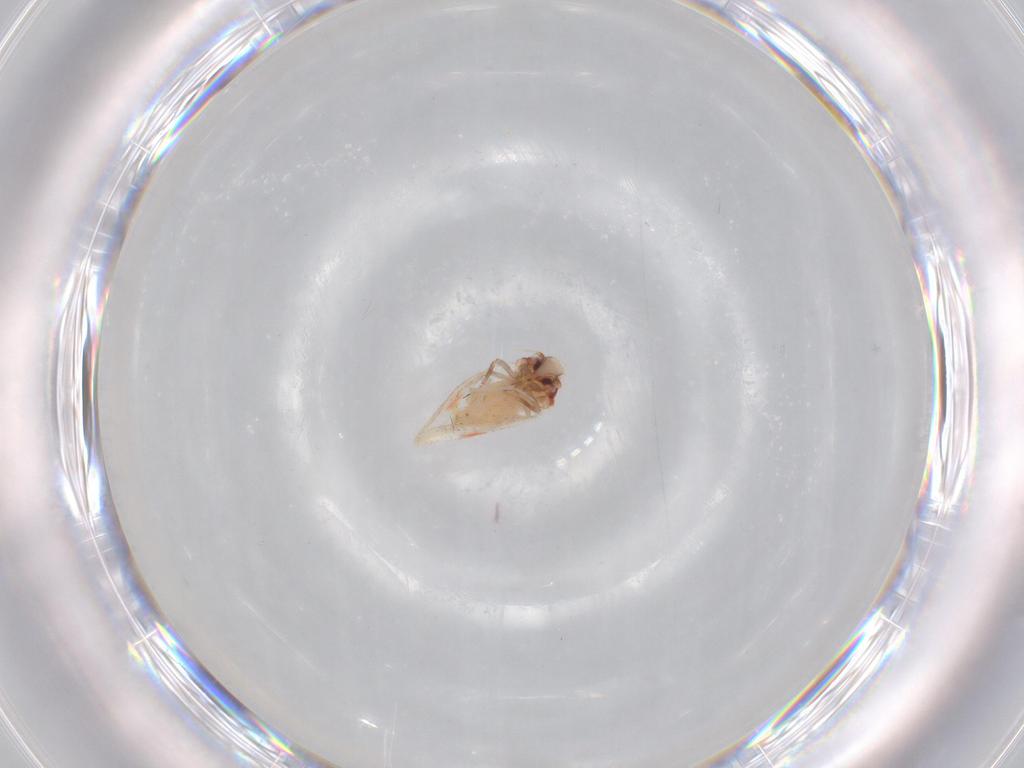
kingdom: Animalia
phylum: Arthropoda
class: Insecta
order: Hemiptera
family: Aleyrodidae
